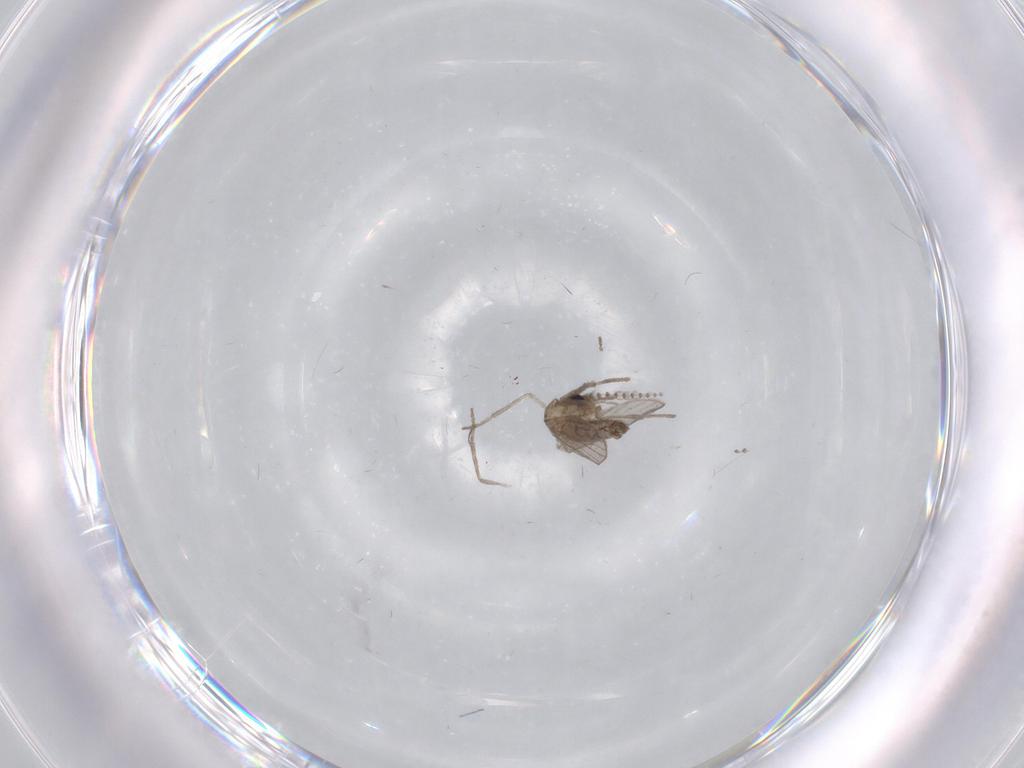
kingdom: Animalia
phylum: Arthropoda
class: Insecta
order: Diptera
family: Psychodidae
